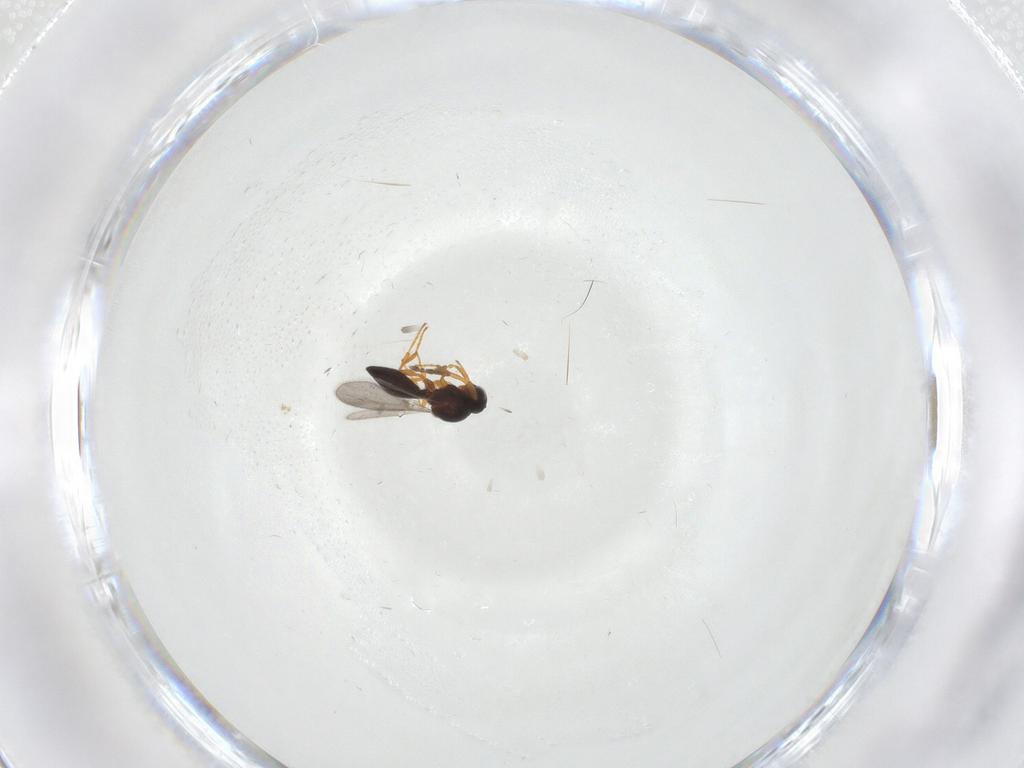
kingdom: Animalia
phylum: Arthropoda
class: Insecta
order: Hymenoptera
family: Platygastridae
